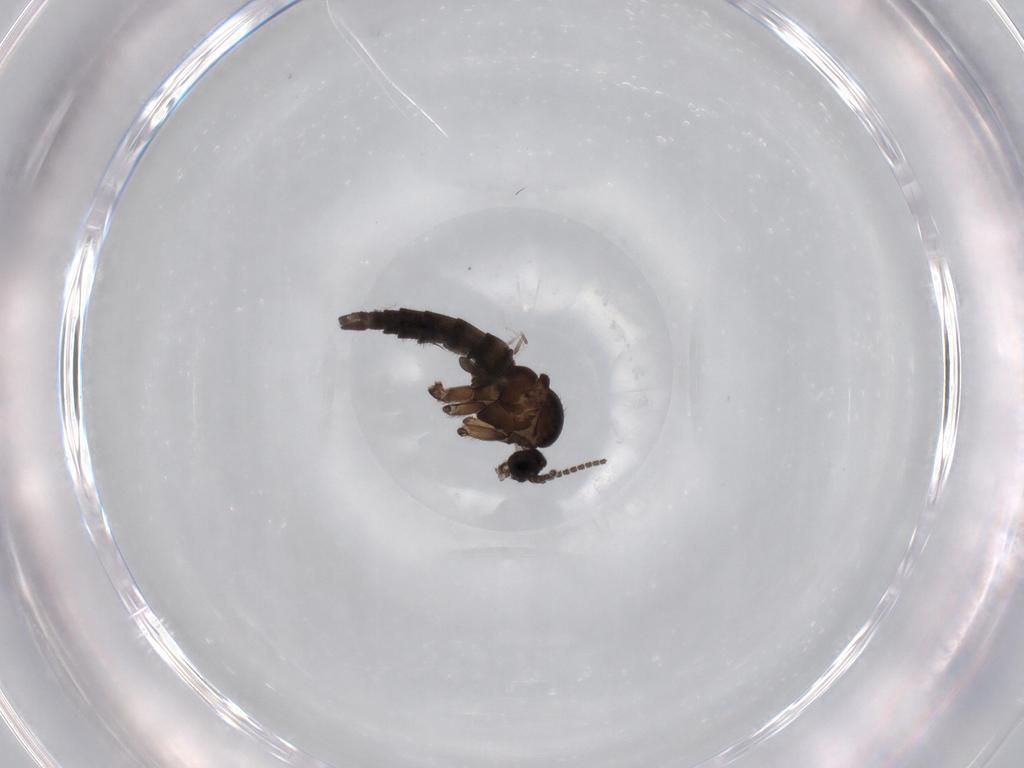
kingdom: Animalia
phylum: Arthropoda
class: Insecta
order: Diptera
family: Sciaridae
